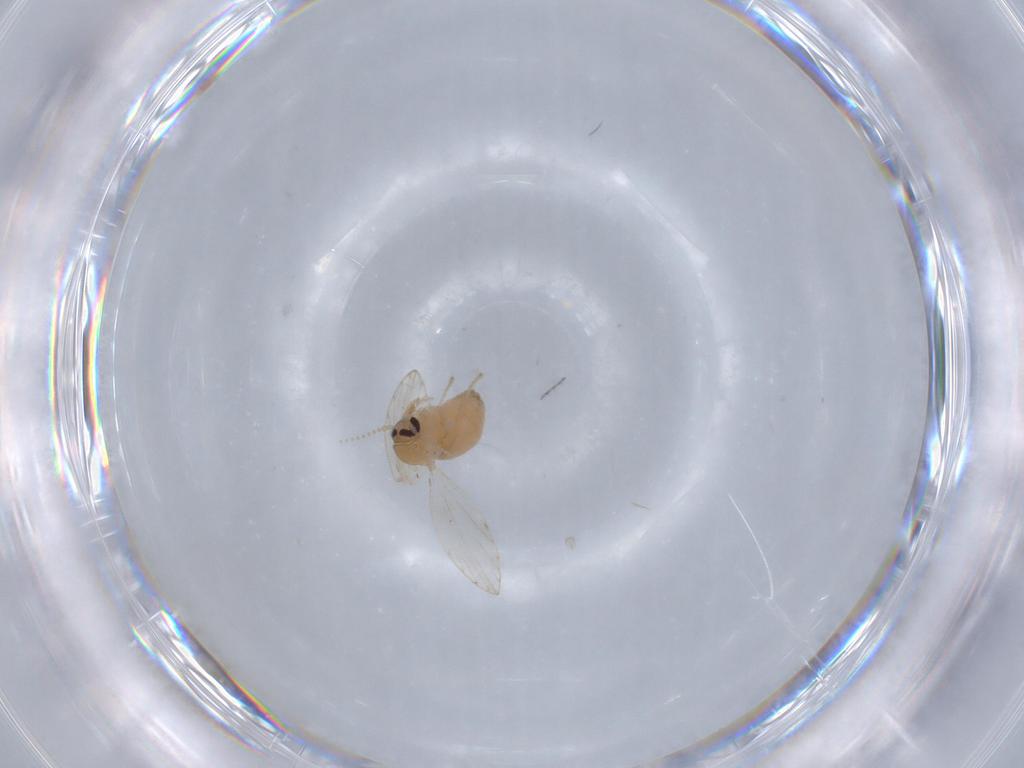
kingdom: Animalia
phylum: Arthropoda
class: Insecta
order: Diptera
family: Psychodidae
